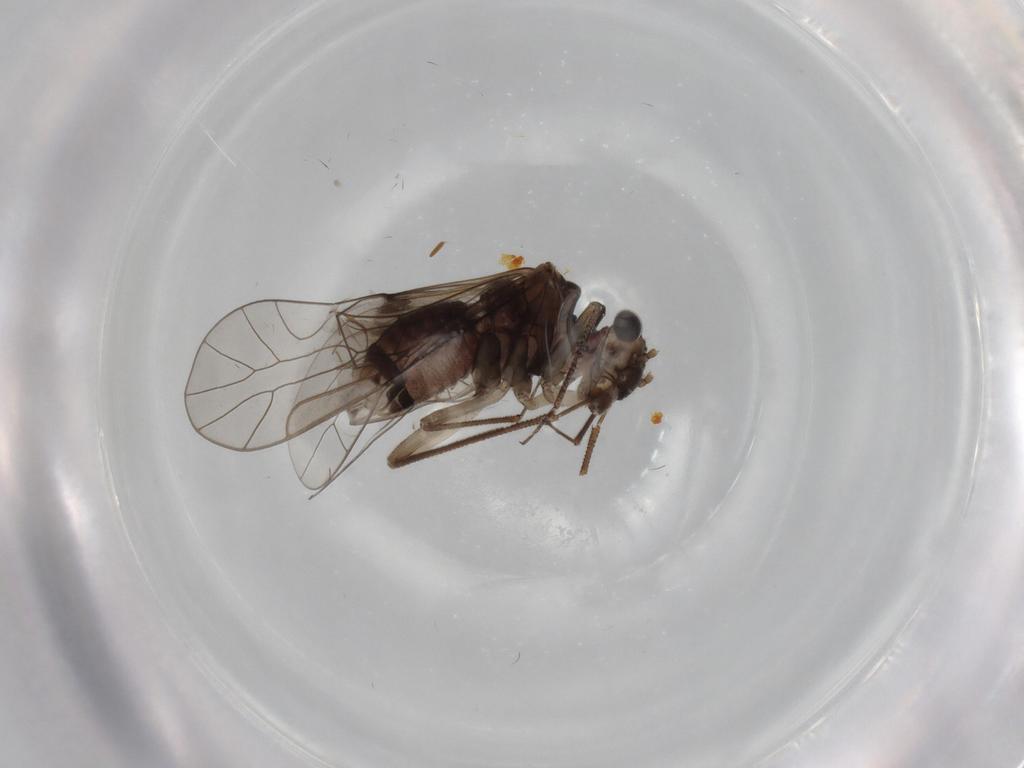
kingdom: Animalia
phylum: Arthropoda
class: Insecta
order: Psocodea
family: Lachesillidae
